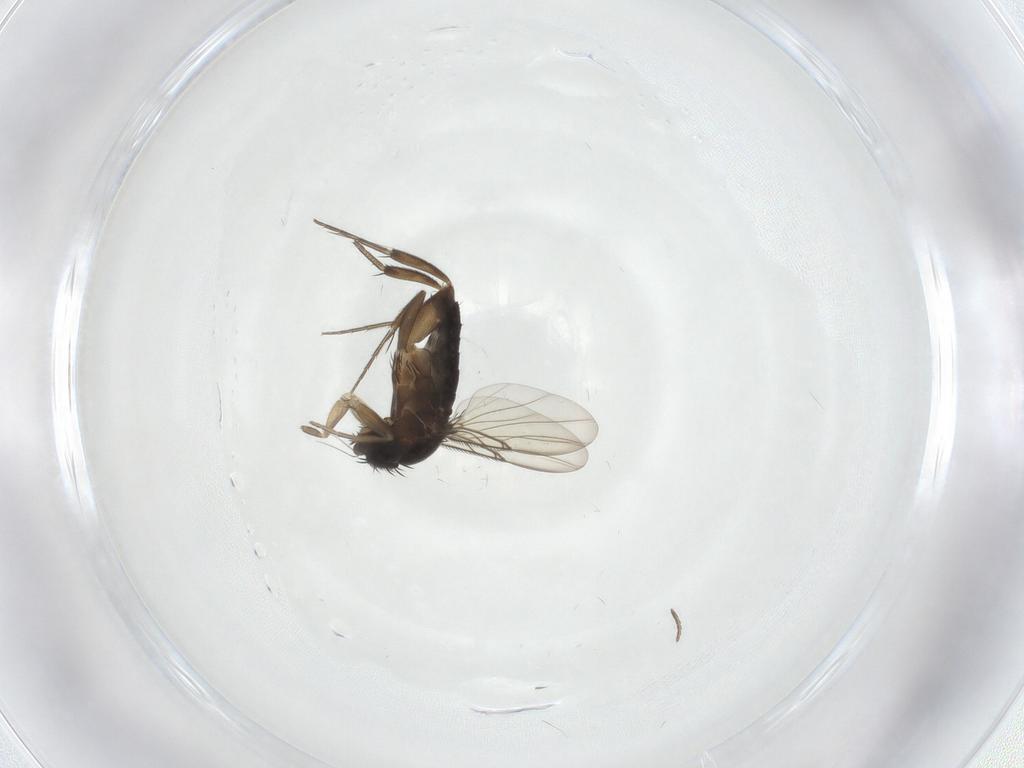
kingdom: Animalia
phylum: Arthropoda
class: Insecta
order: Diptera
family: Phoridae
